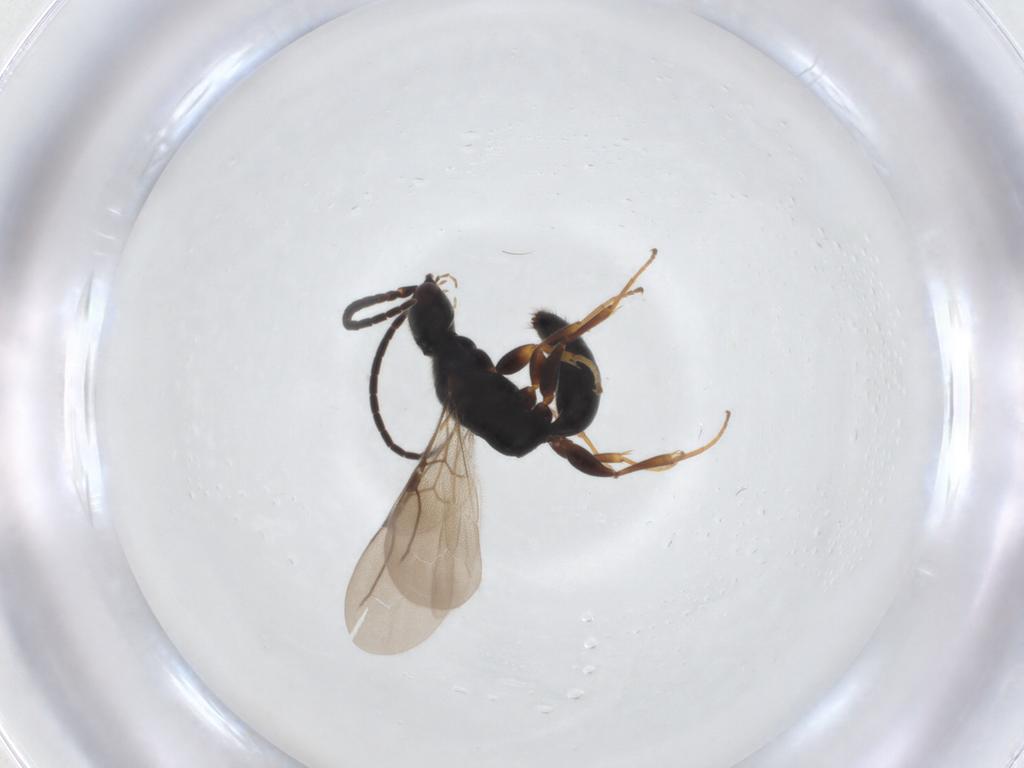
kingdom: Animalia
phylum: Arthropoda
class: Insecta
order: Hymenoptera
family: Bethylidae
